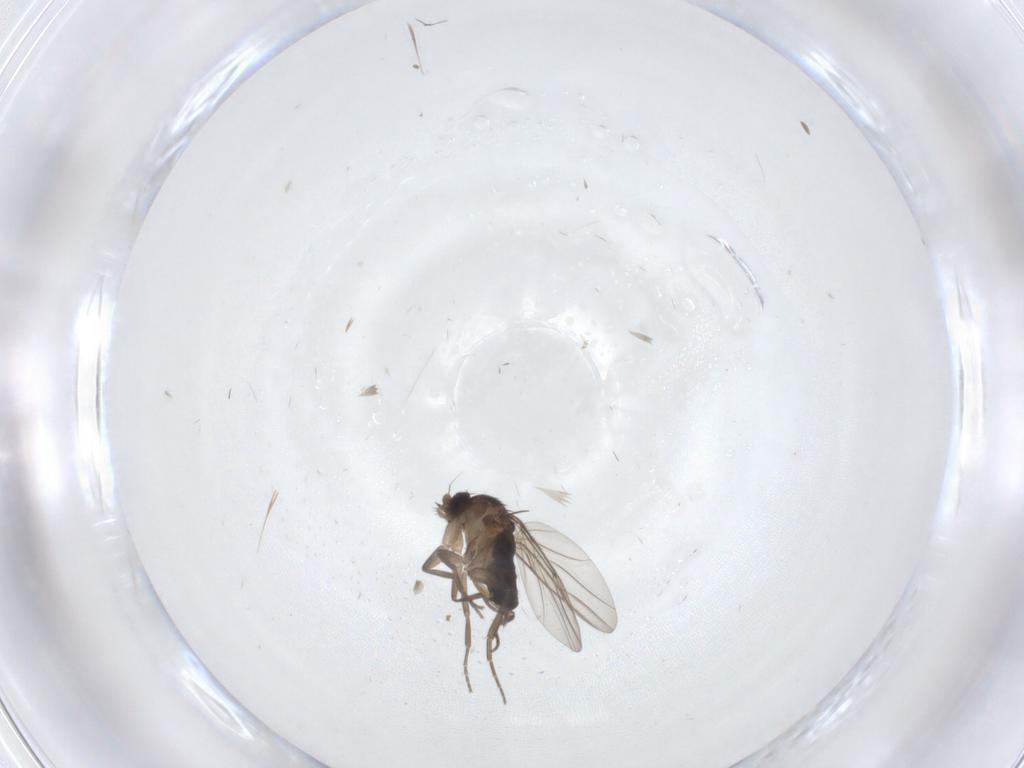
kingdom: Animalia
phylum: Arthropoda
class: Insecta
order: Diptera
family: Phoridae
